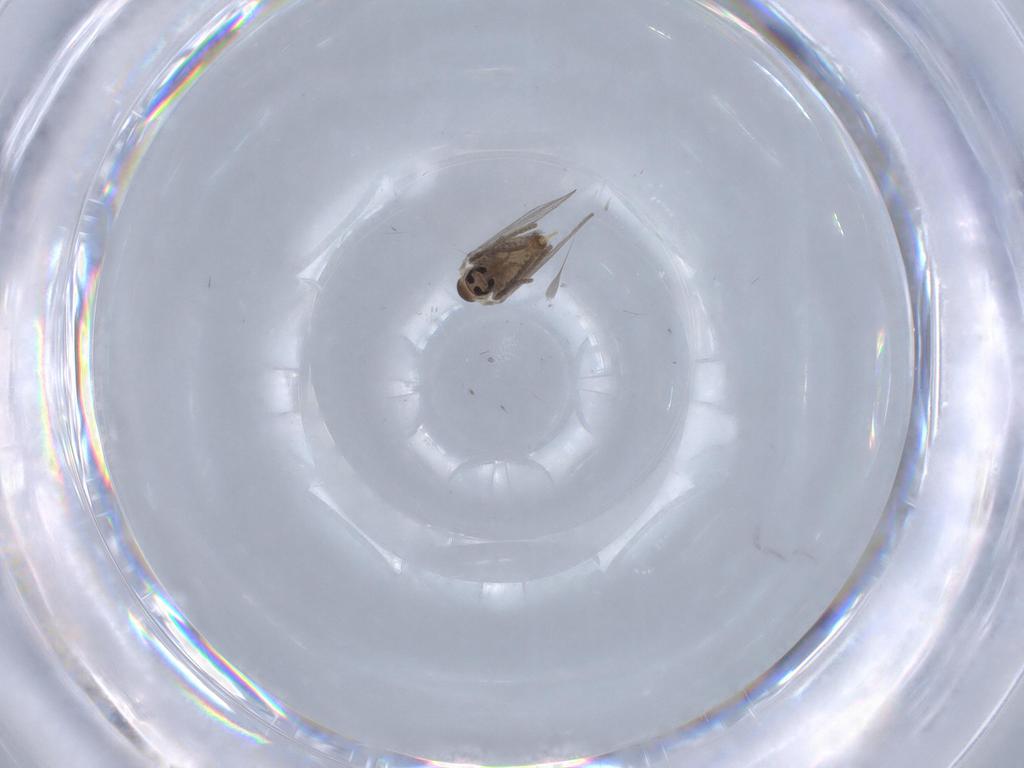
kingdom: Animalia
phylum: Arthropoda
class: Insecta
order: Diptera
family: Psychodidae
